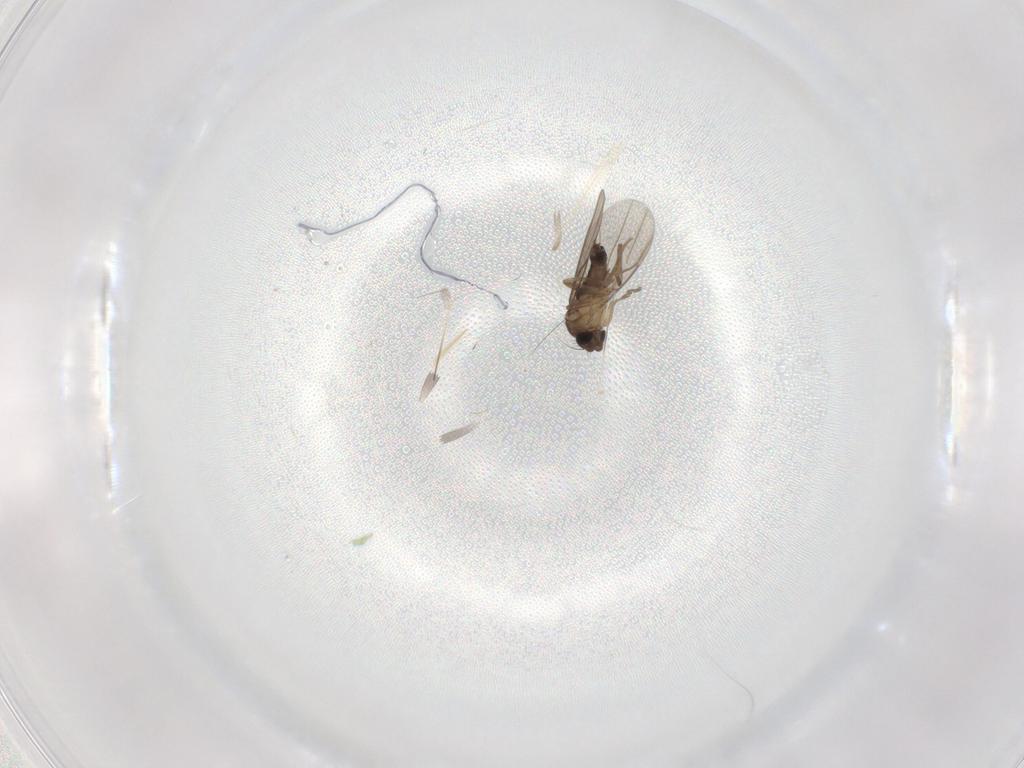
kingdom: Animalia
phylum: Arthropoda
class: Insecta
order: Diptera
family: Phoridae
